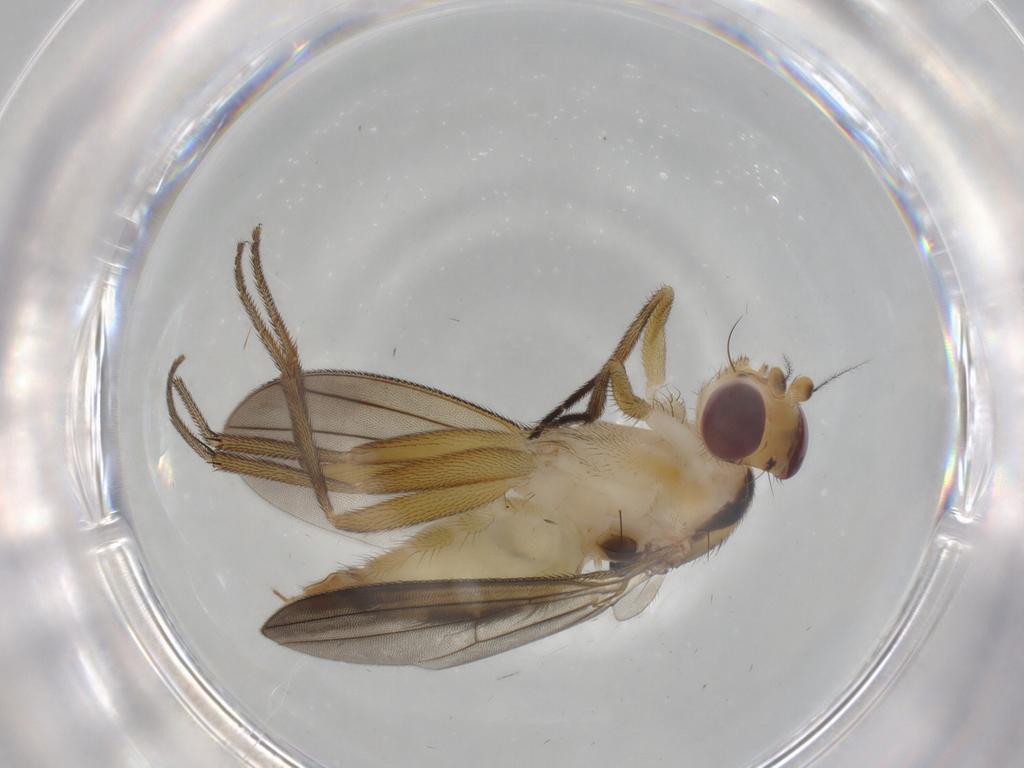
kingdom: Animalia
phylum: Arthropoda
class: Insecta
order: Diptera
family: Clusiidae
